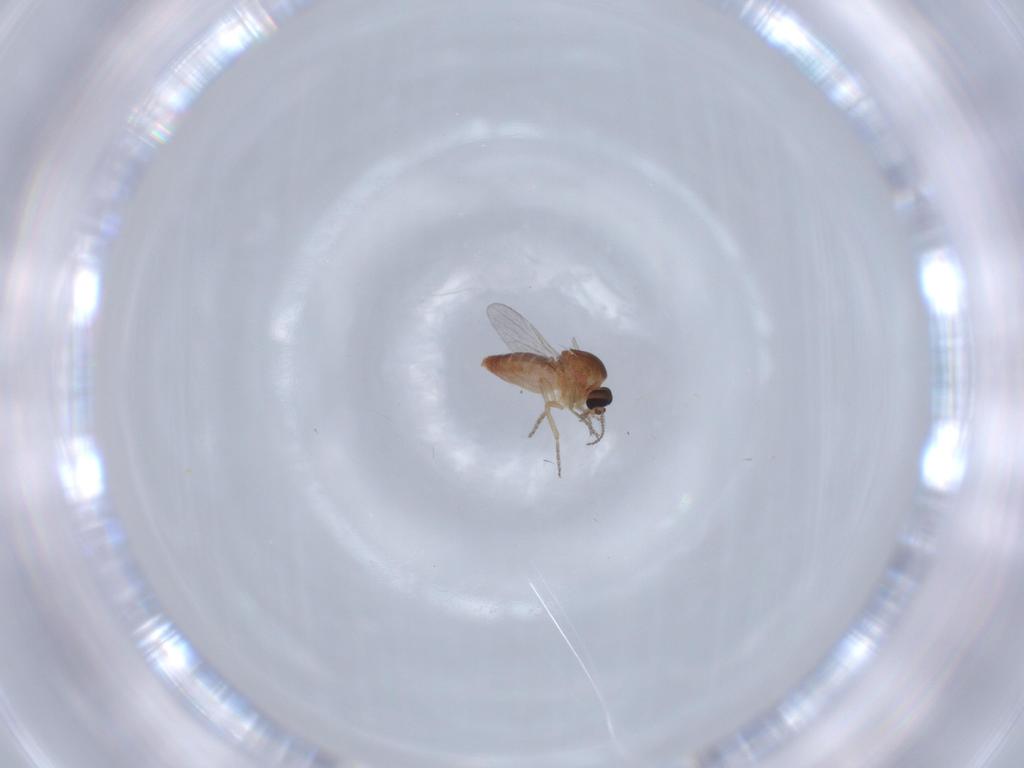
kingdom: Animalia
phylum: Arthropoda
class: Insecta
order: Diptera
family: Ceratopogonidae
